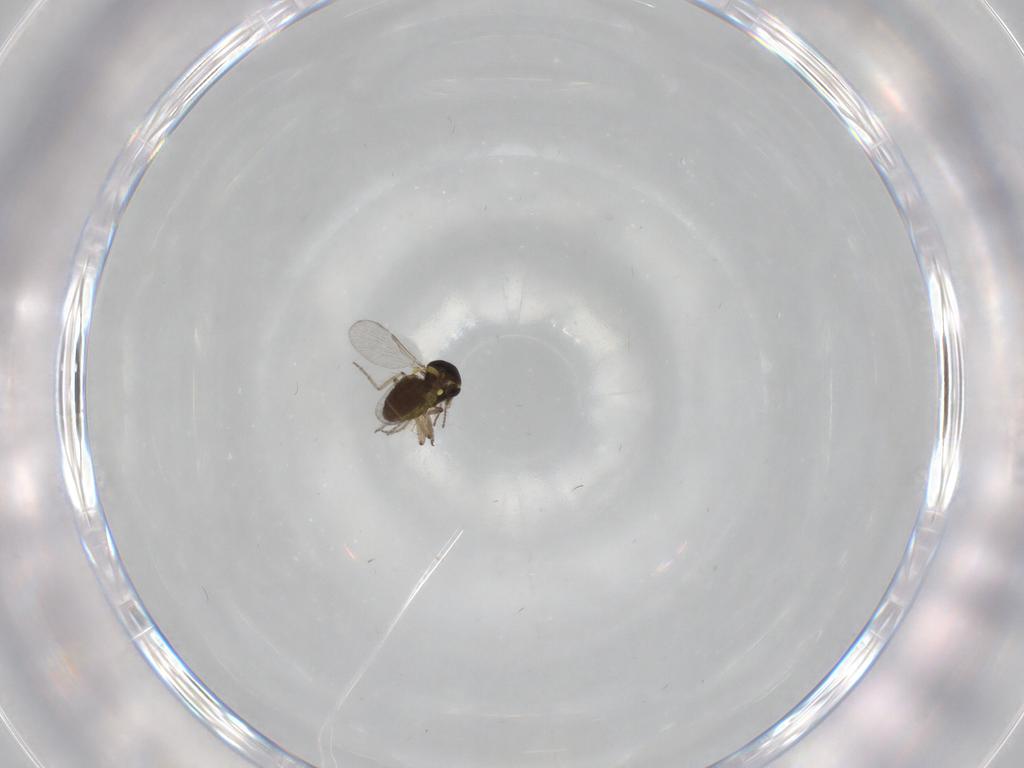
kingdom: Animalia
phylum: Arthropoda
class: Insecta
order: Diptera
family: Ceratopogonidae
